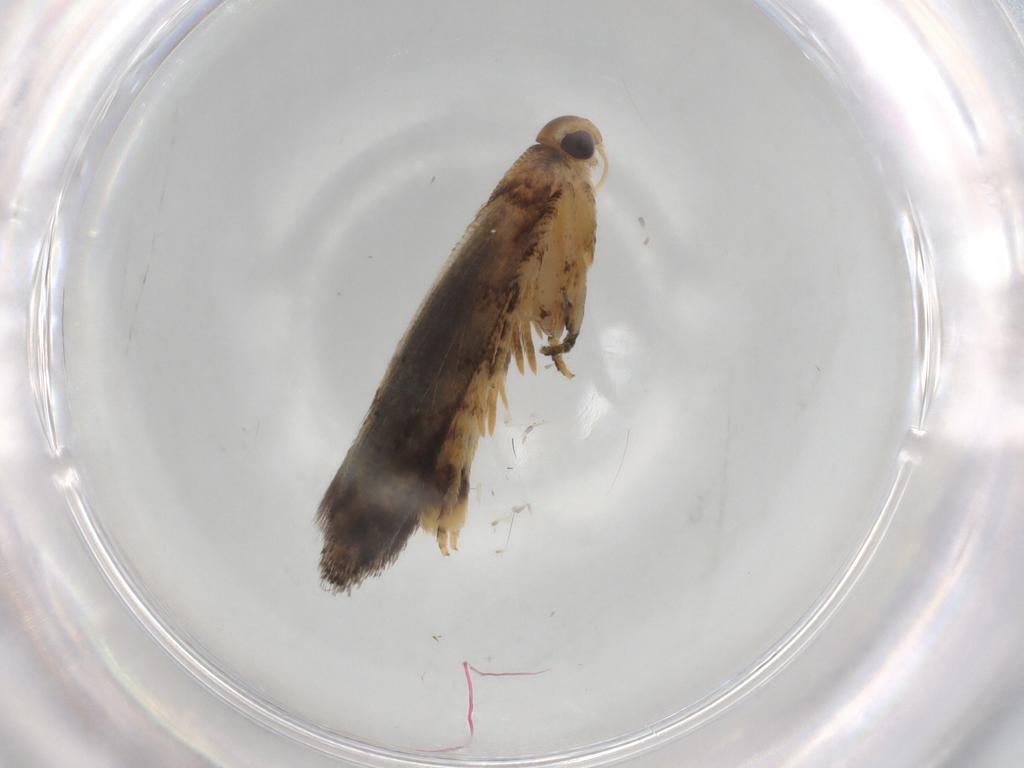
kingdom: Animalia
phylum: Arthropoda
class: Insecta
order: Lepidoptera
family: Gelechiidae
